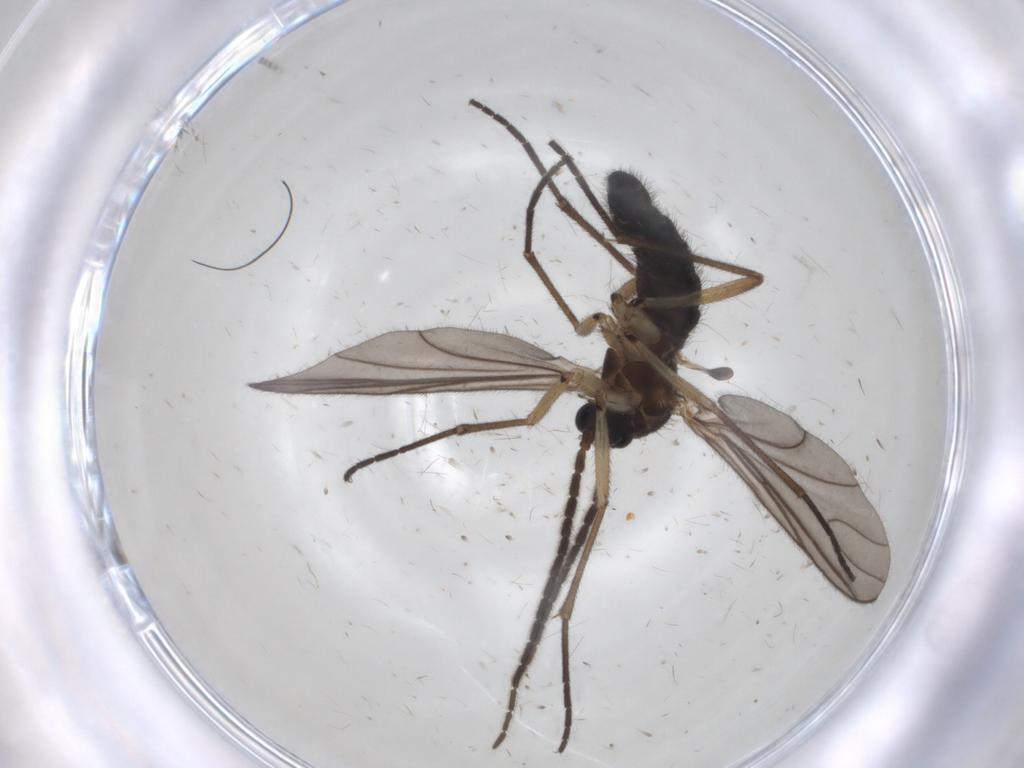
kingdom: Animalia
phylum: Arthropoda
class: Insecta
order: Diptera
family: Sciaridae
